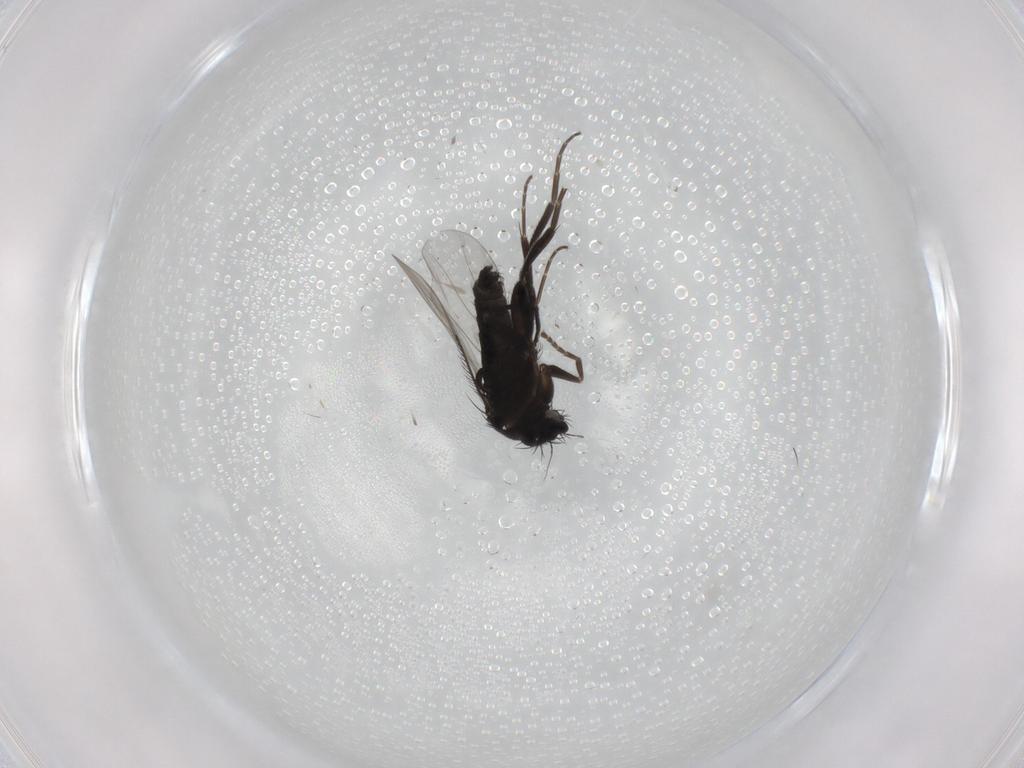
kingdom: Animalia
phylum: Arthropoda
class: Insecta
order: Diptera
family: Phoridae
